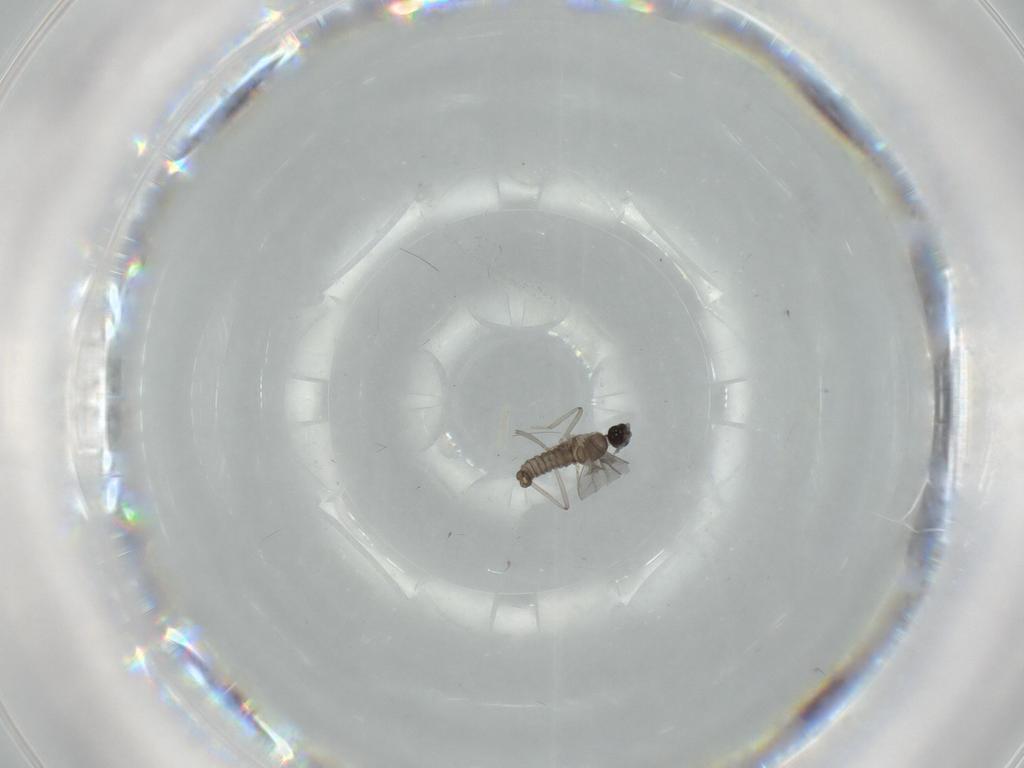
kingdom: Animalia
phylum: Arthropoda
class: Insecta
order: Diptera
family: Cecidomyiidae
